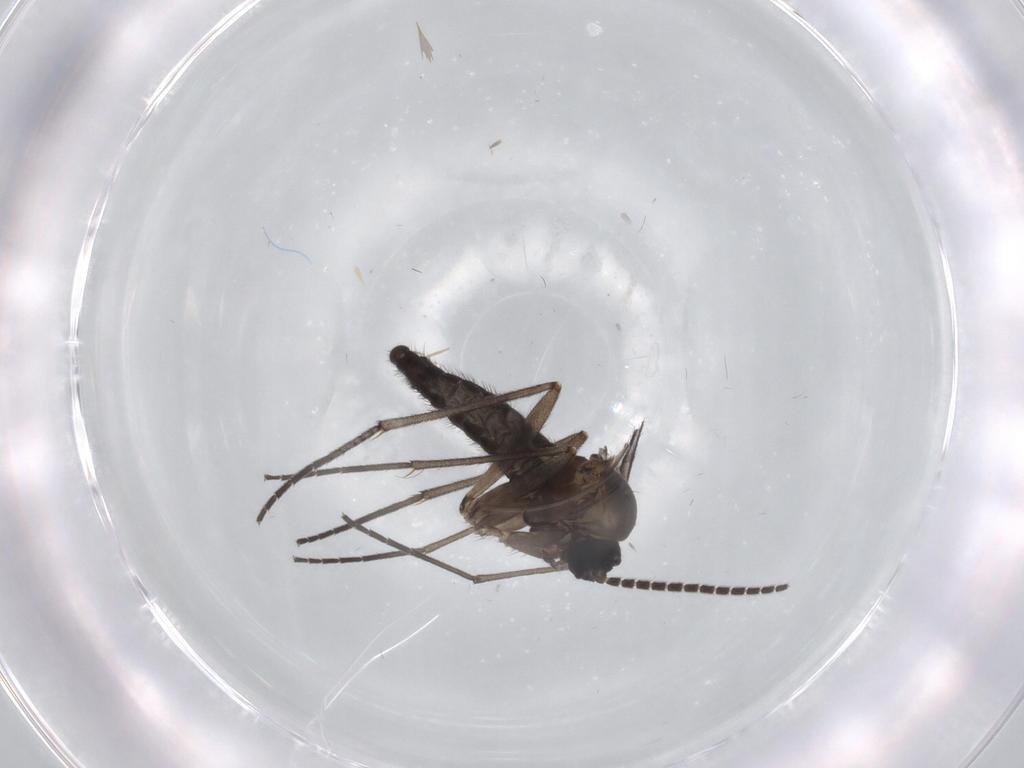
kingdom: Animalia
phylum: Arthropoda
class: Insecta
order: Diptera
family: Sciaridae
